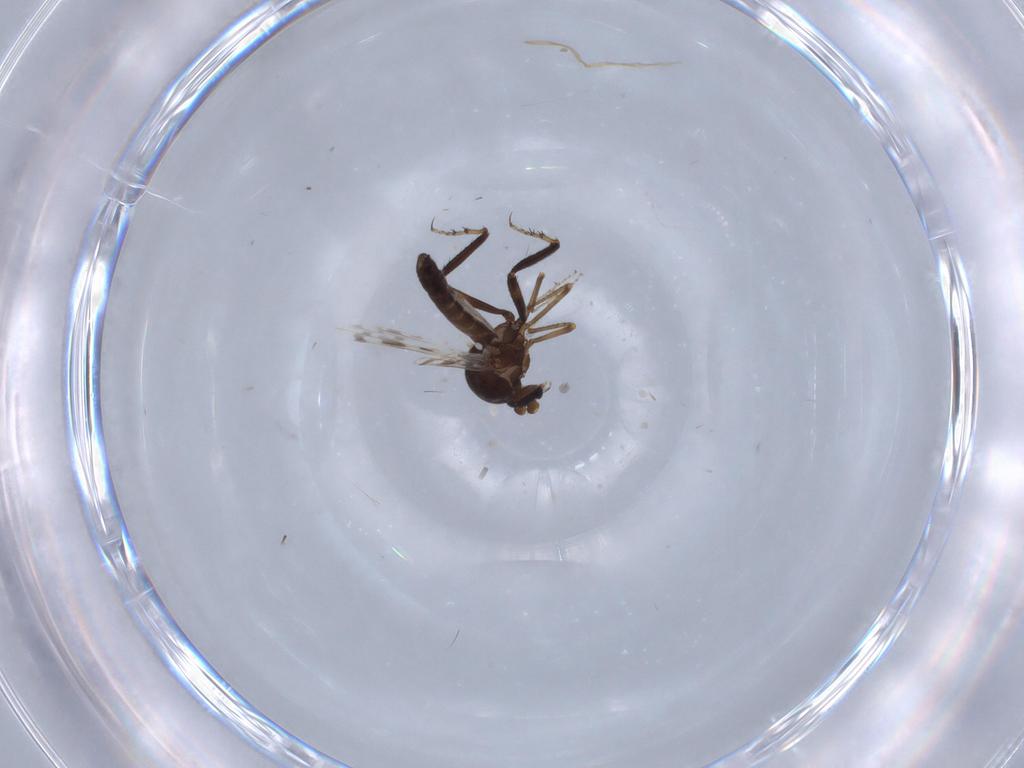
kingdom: Animalia
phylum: Arthropoda
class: Insecta
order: Diptera
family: Ceratopogonidae
